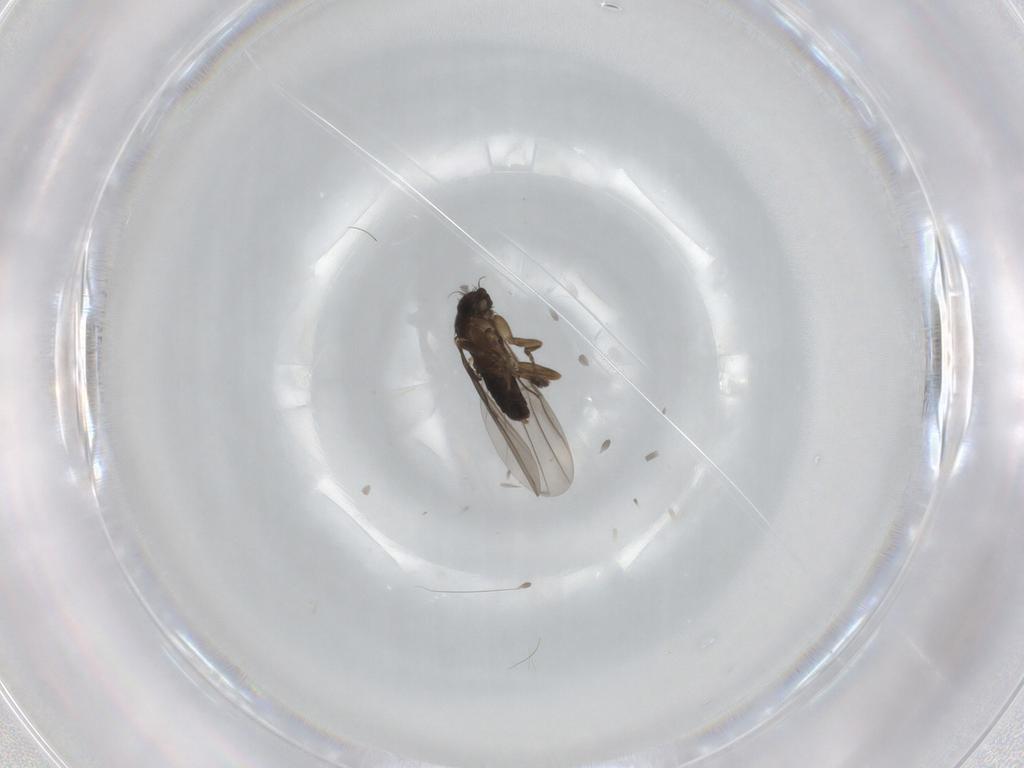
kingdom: Animalia
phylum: Arthropoda
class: Insecta
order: Diptera
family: Phoridae
